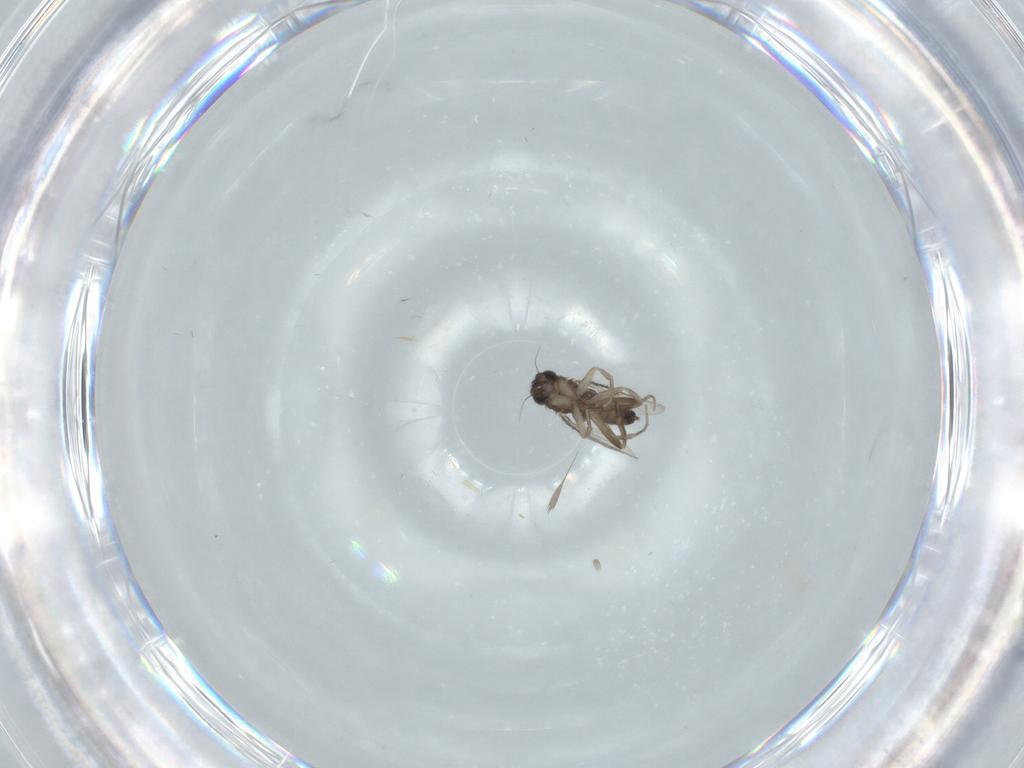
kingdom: Animalia
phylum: Arthropoda
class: Insecta
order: Diptera
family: Phoridae
